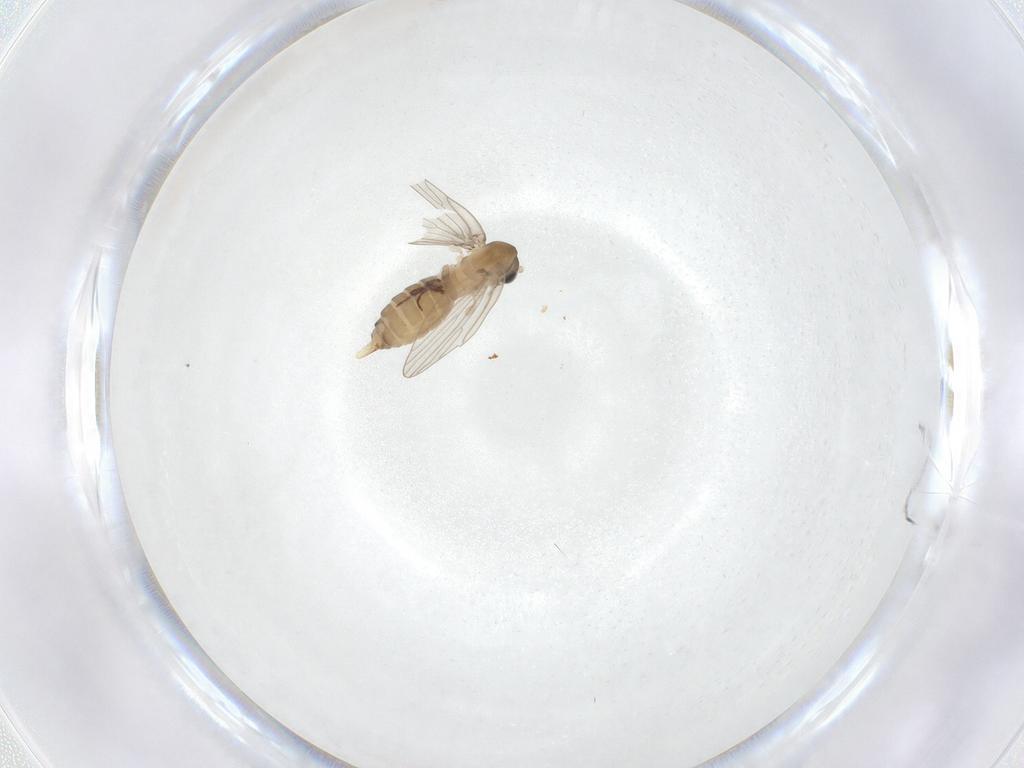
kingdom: Animalia
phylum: Arthropoda
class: Insecta
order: Diptera
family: Psychodidae
